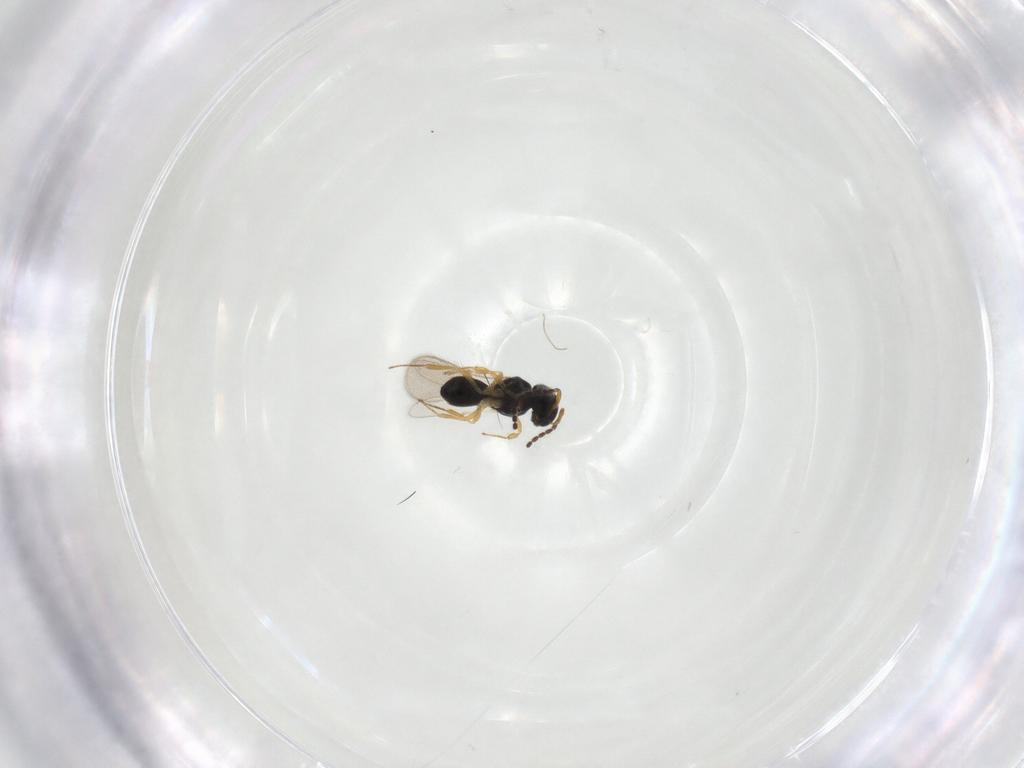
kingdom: Animalia
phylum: Arthropoda
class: Insecta
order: Hymenoptera
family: Scelionidae
